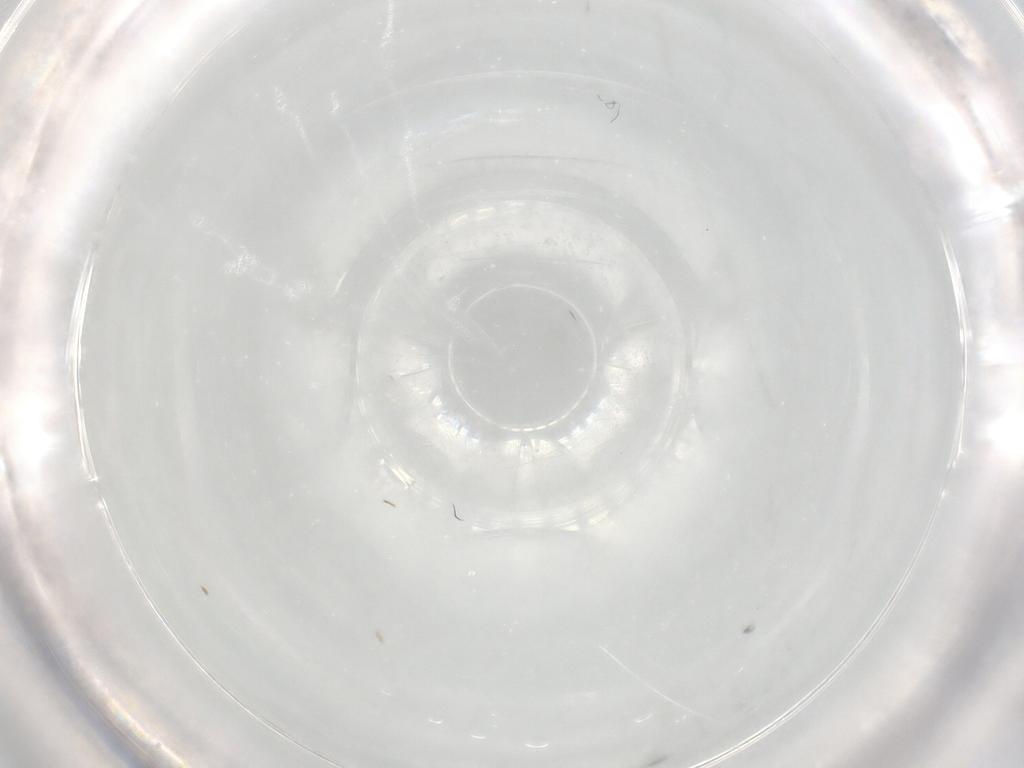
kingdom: Animalia
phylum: Arthropoda
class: Insecta
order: Diptera
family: Phoridae
